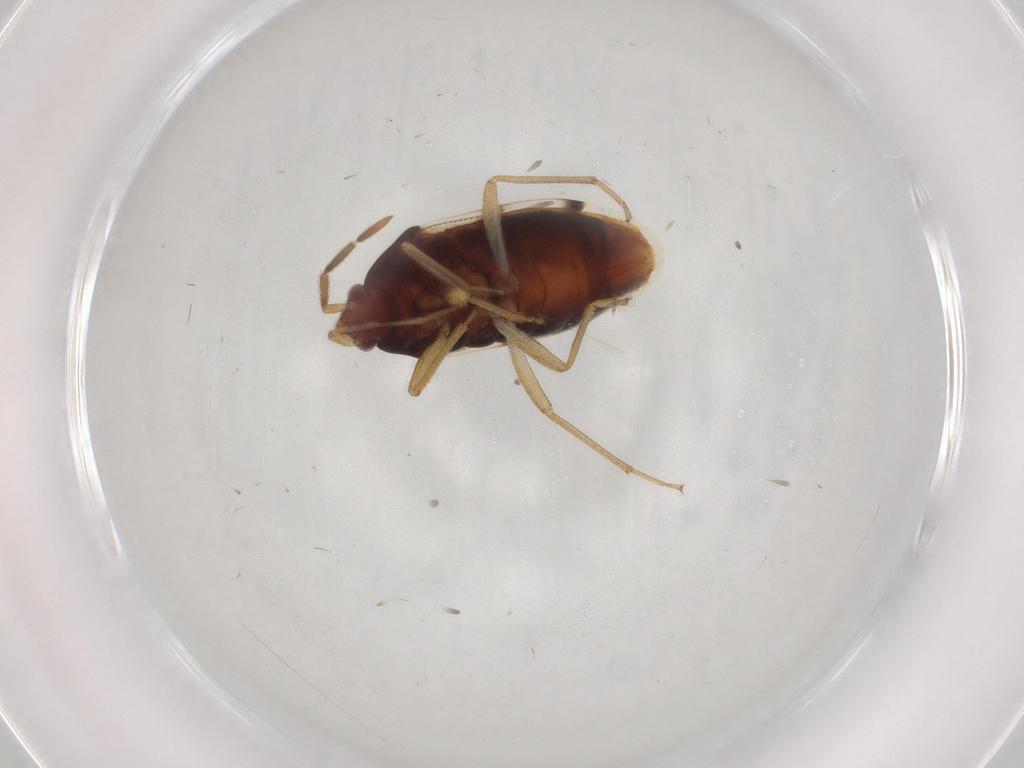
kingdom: Animalia
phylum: Arthropoda
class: Insecta
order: Hemiptera
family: Rhyparochromidae
